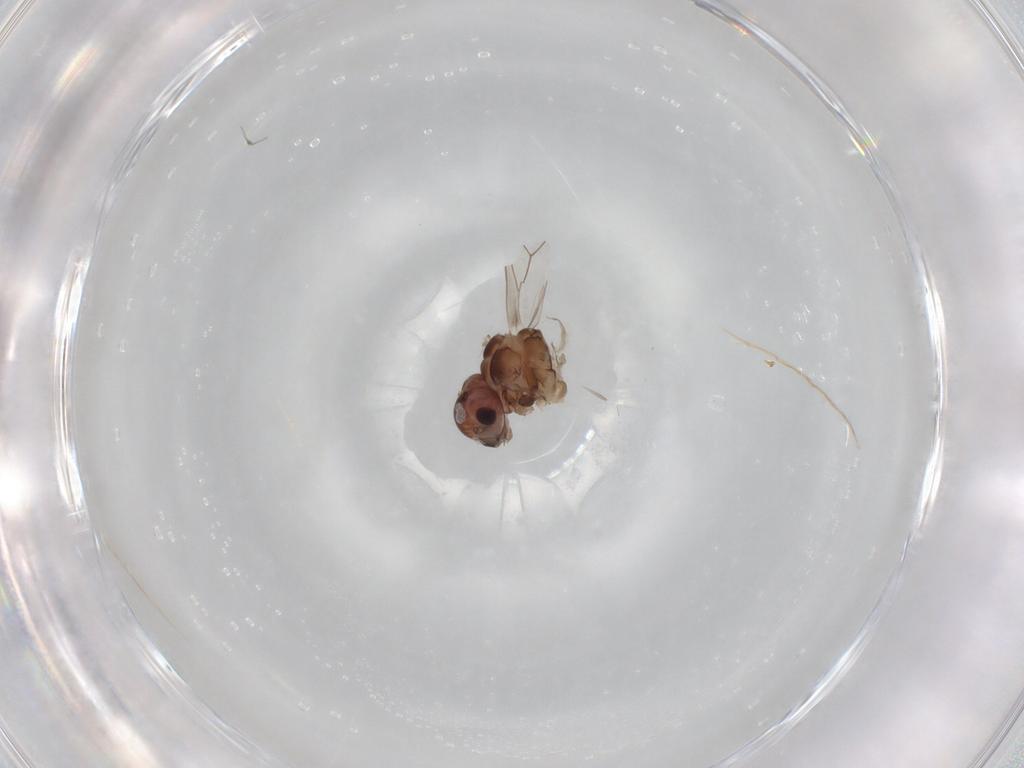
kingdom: Animalia
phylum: Arthropoda
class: Insecta
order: Psocodea
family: Peripsocidae
